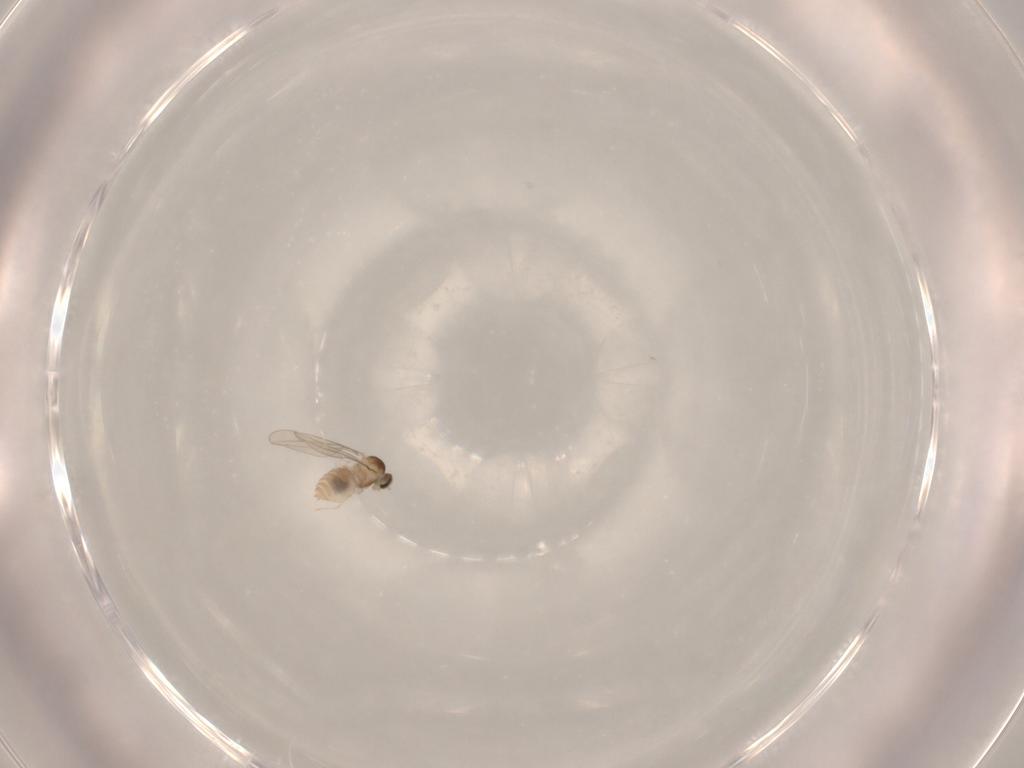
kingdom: Animalia
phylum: Arthropoda
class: Insecta
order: Diptera
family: Cecidomyiidae
